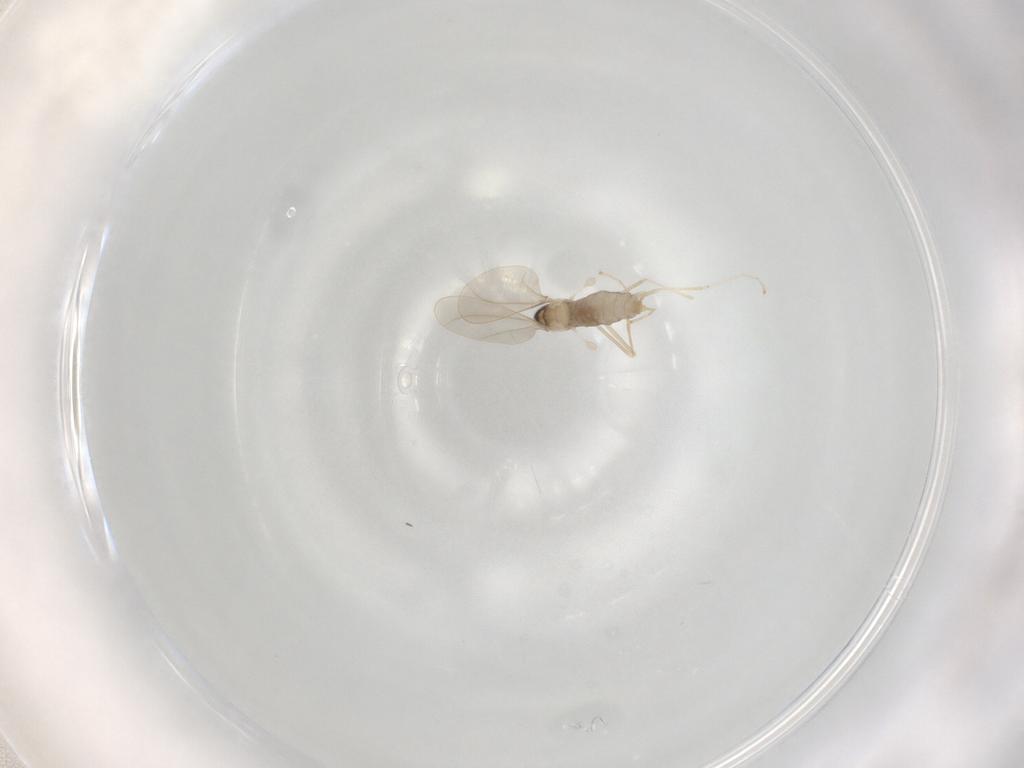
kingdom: Animalia
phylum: Arthropoda
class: Insecta
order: Diptera
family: Cecidomyiidae
